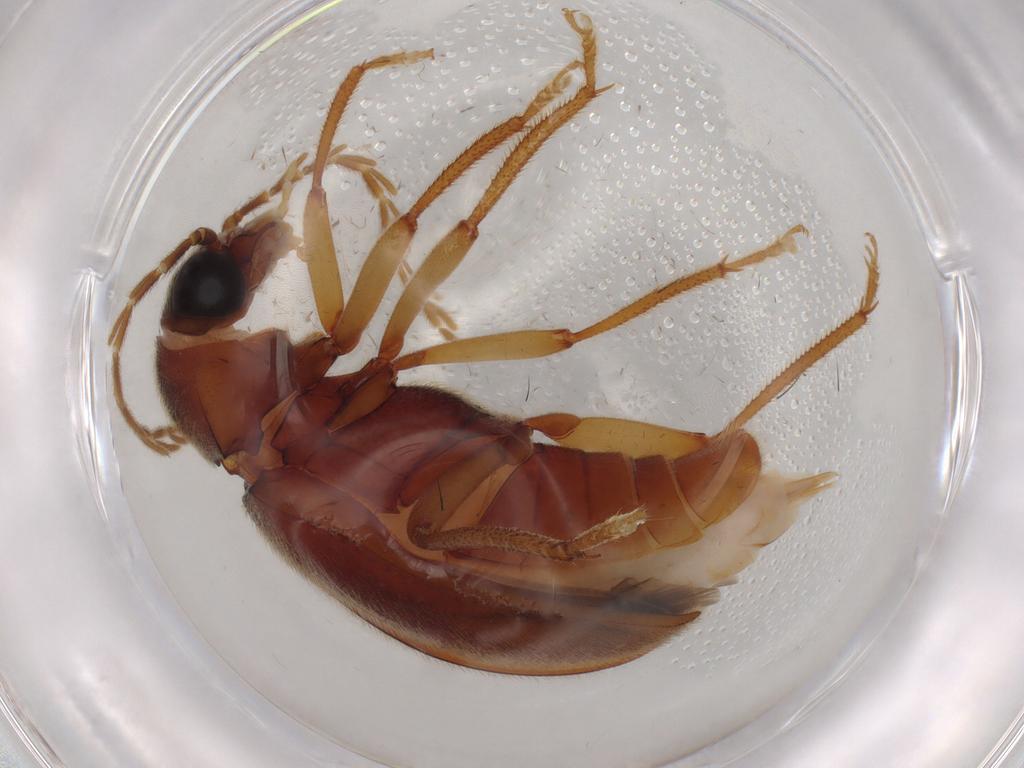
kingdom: Animalia
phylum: Arthropoda
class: Insecta
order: Coleoptera
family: Ptilodactylidae
